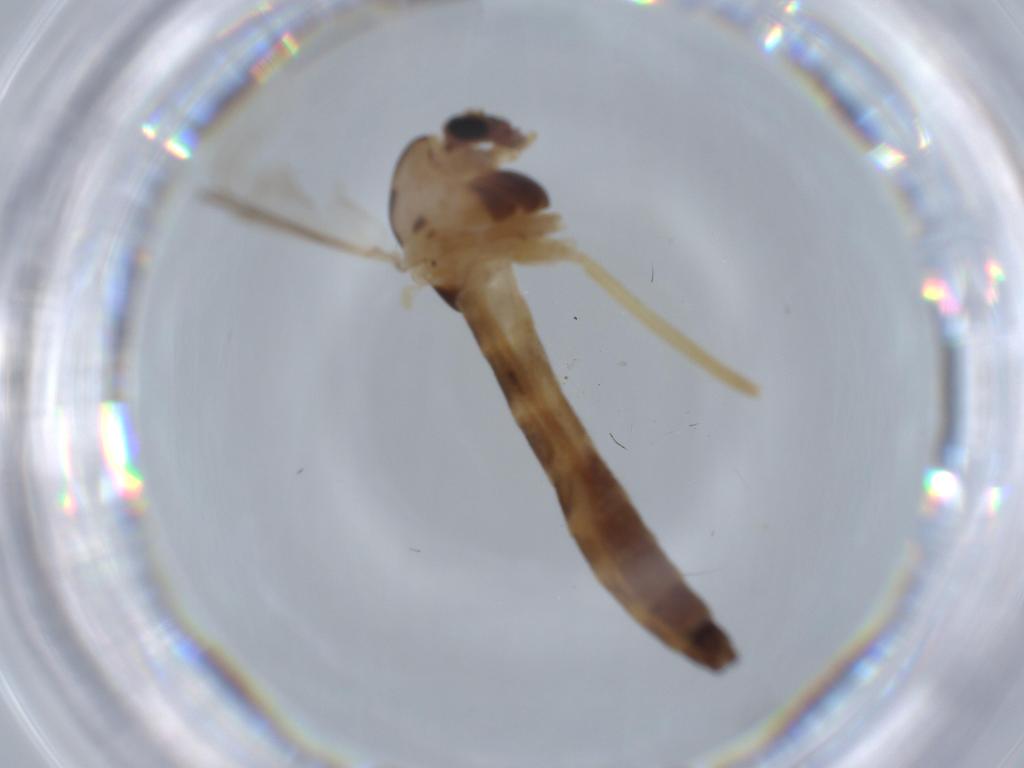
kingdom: Animalia
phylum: Arthropoda
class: Insecta
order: Diptera
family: Chironomidae
